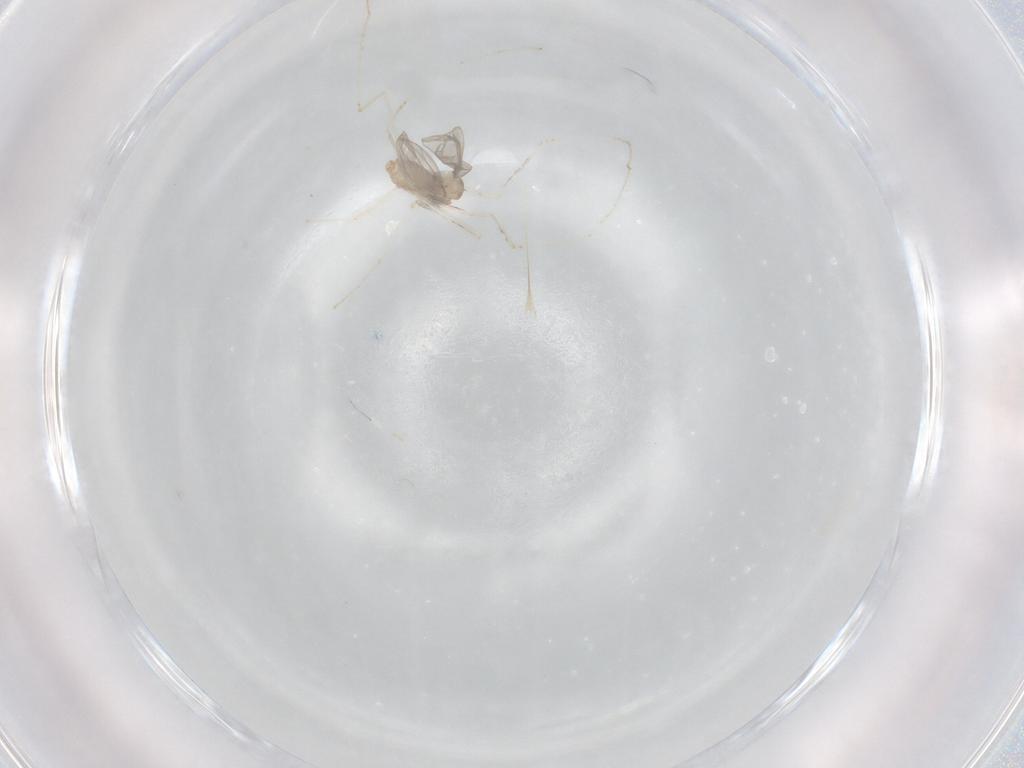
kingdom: Animalia
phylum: Arthropoda
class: Insecta
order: Diptera
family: Cecidomyiidae
